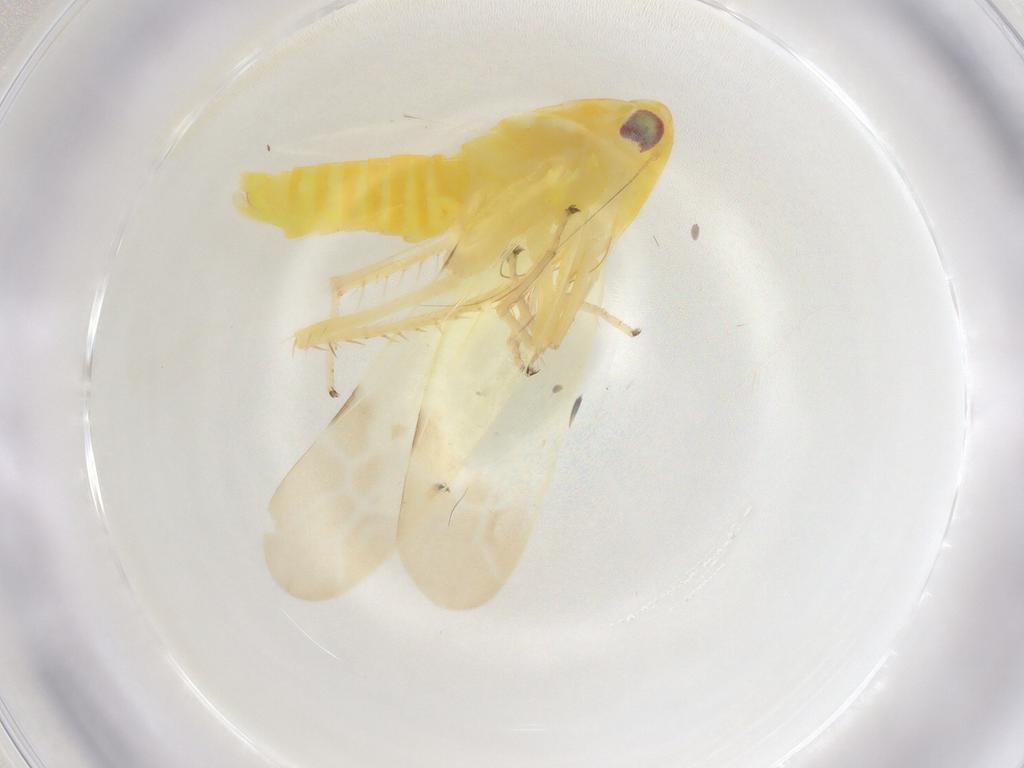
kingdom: Animalia
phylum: Arthropoda
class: Insecta
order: Hemiptera
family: Cicadellidae
